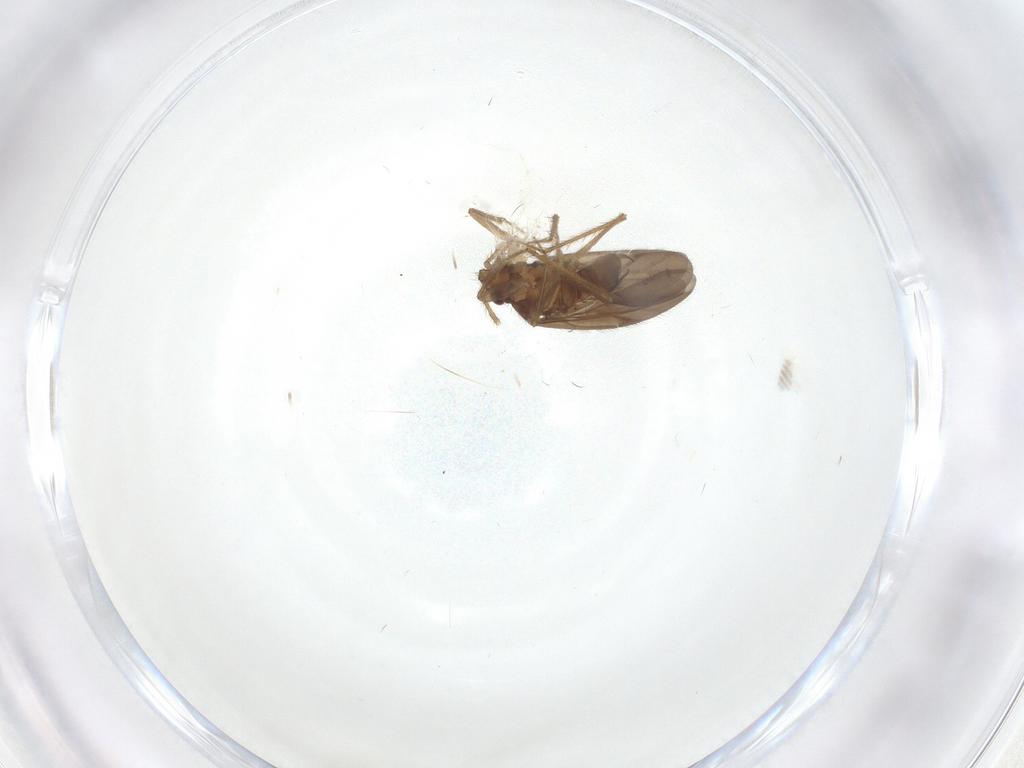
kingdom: Animalia
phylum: Arthropoda
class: Insecta
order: Hemiptera
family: Ceratocombidae
